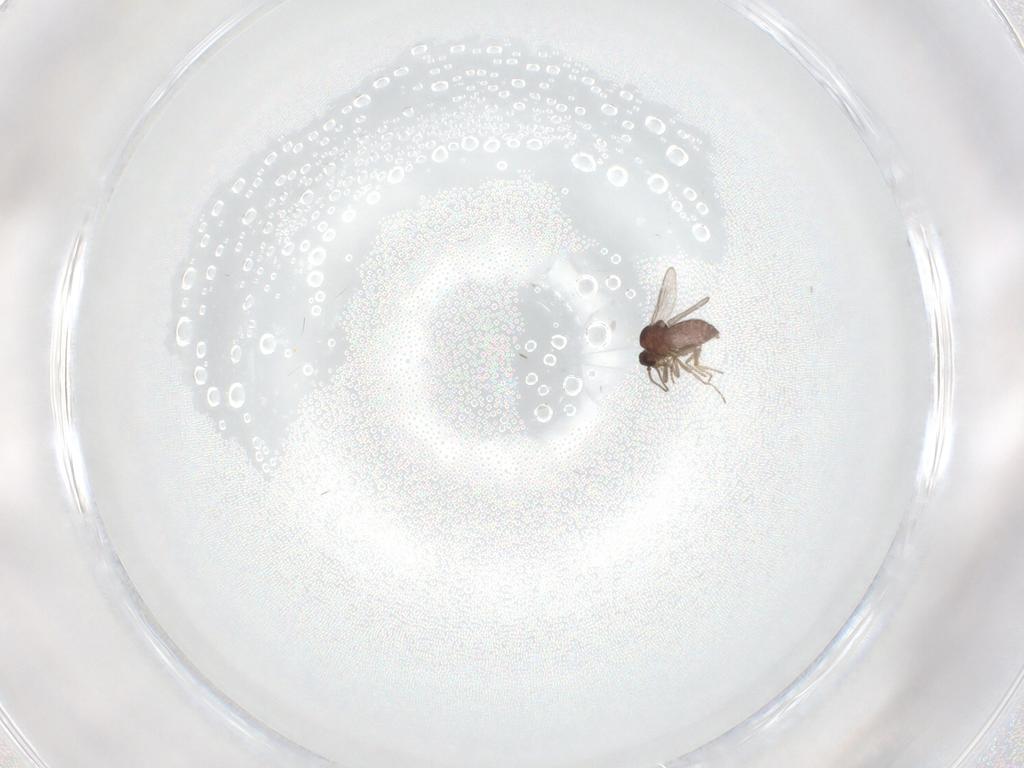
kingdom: Animalia
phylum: Arthropoda
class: Insecta
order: Diptera
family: Ceratopogonidae
